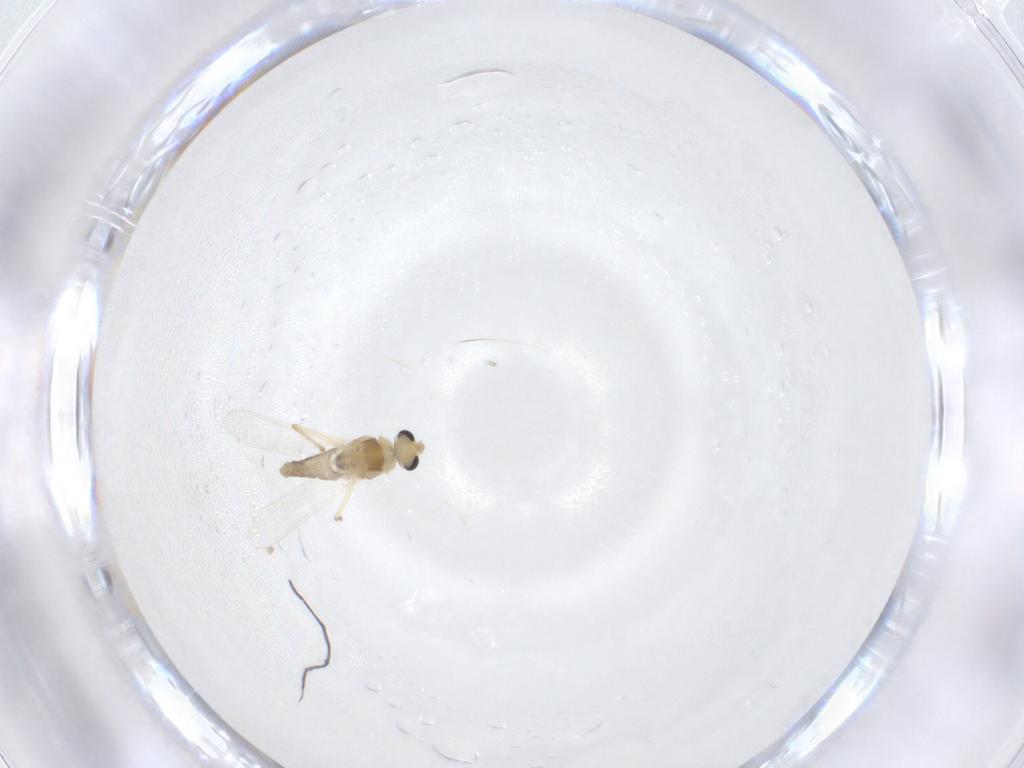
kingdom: Animalia
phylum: Arthropoda
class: Insecta
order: Diptera
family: Chironomidae
